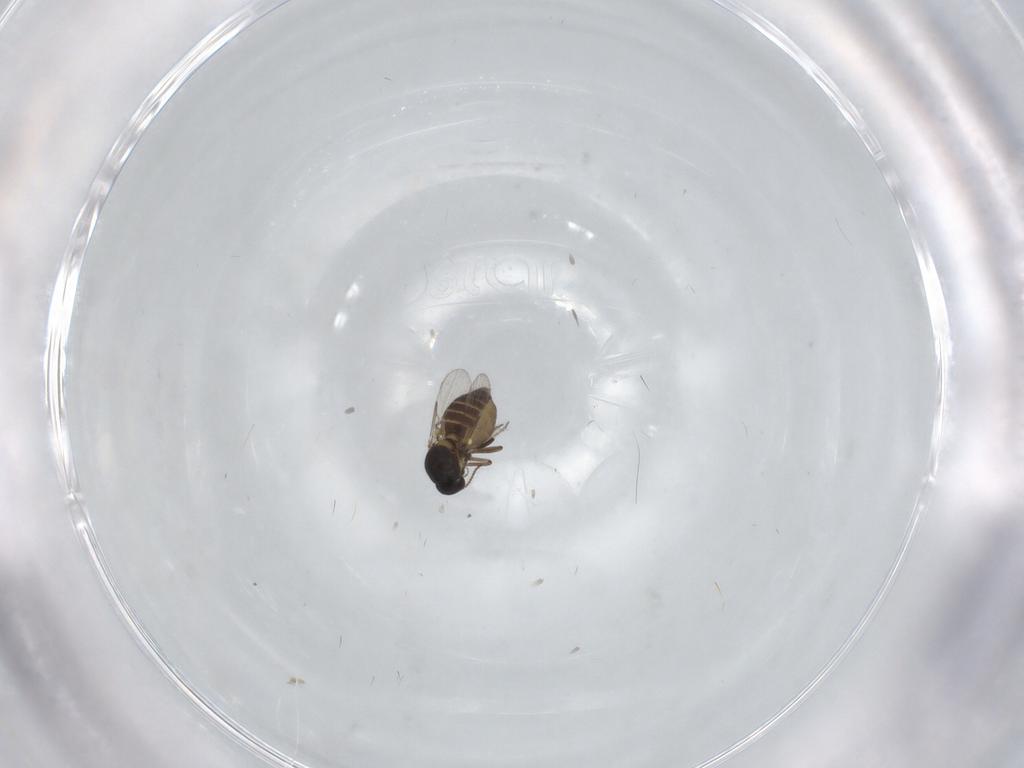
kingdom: Animalia
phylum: Arthropoda
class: Insecta
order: Diptera
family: Ceratopogonidae
